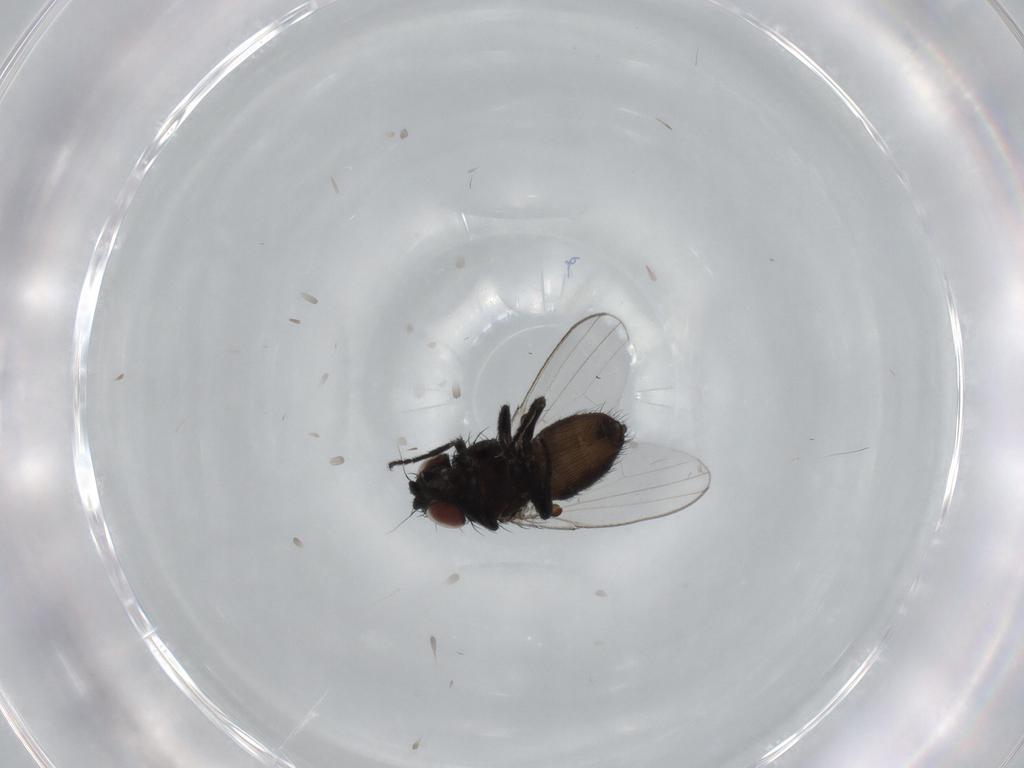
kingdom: Animalia
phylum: Arthropoda
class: Insecta
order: Diptera
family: Milichiidae
